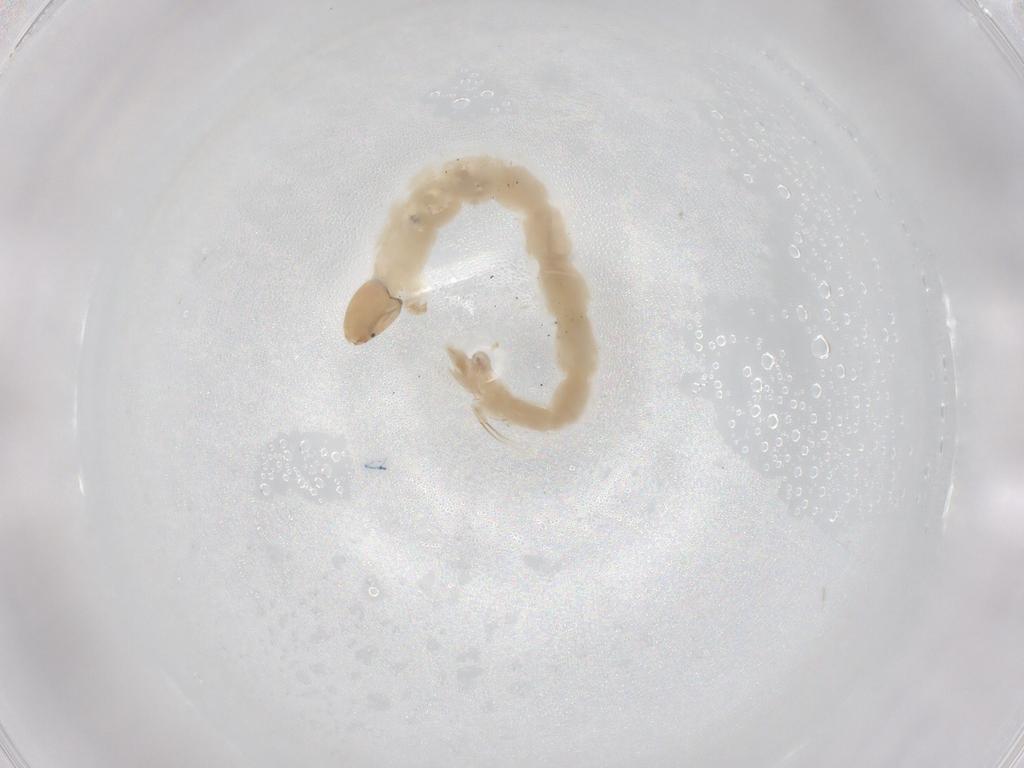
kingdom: Animalia
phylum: Arthropoda
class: Insecta
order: Diptera
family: Chironomidae
